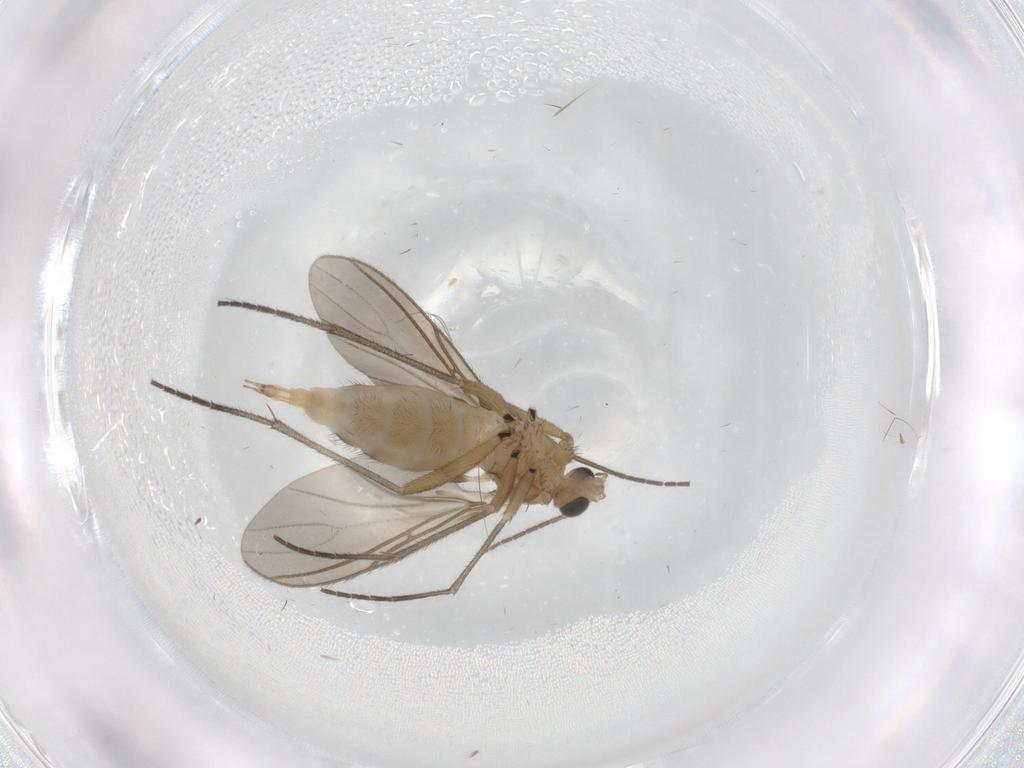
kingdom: Animalia
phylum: Arthropoda
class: Insecta
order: Diptera
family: Sciaridae
